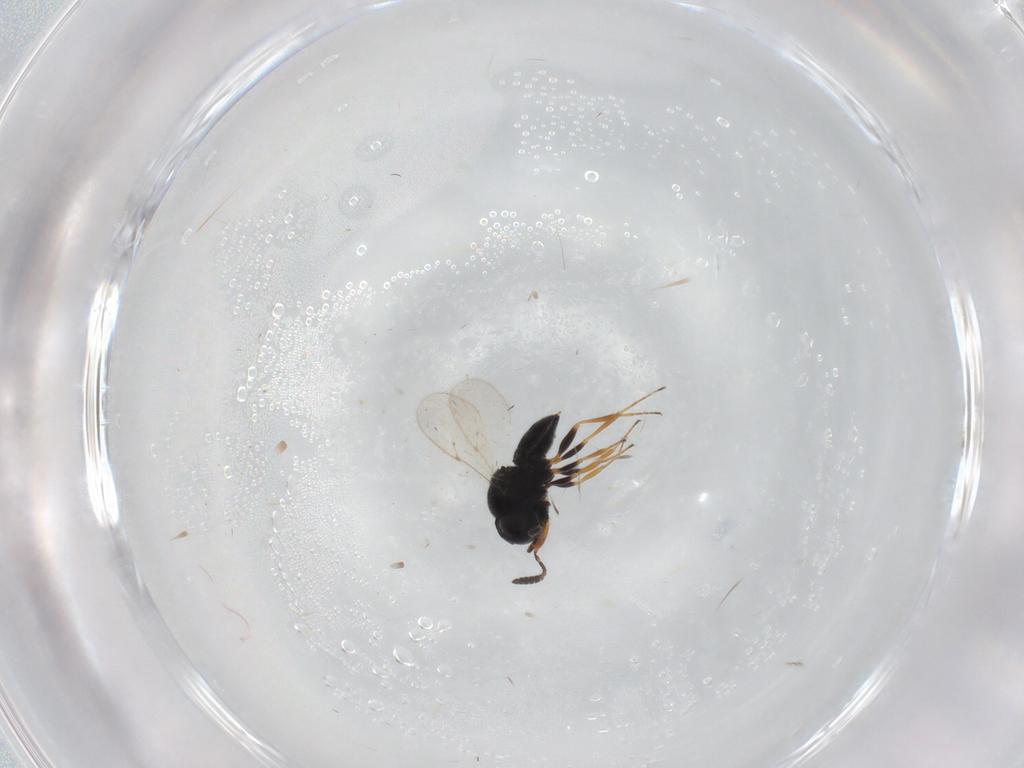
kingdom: Animalia
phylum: Arthropoda
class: Insecta
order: Coleoptera
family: Curculionidae
